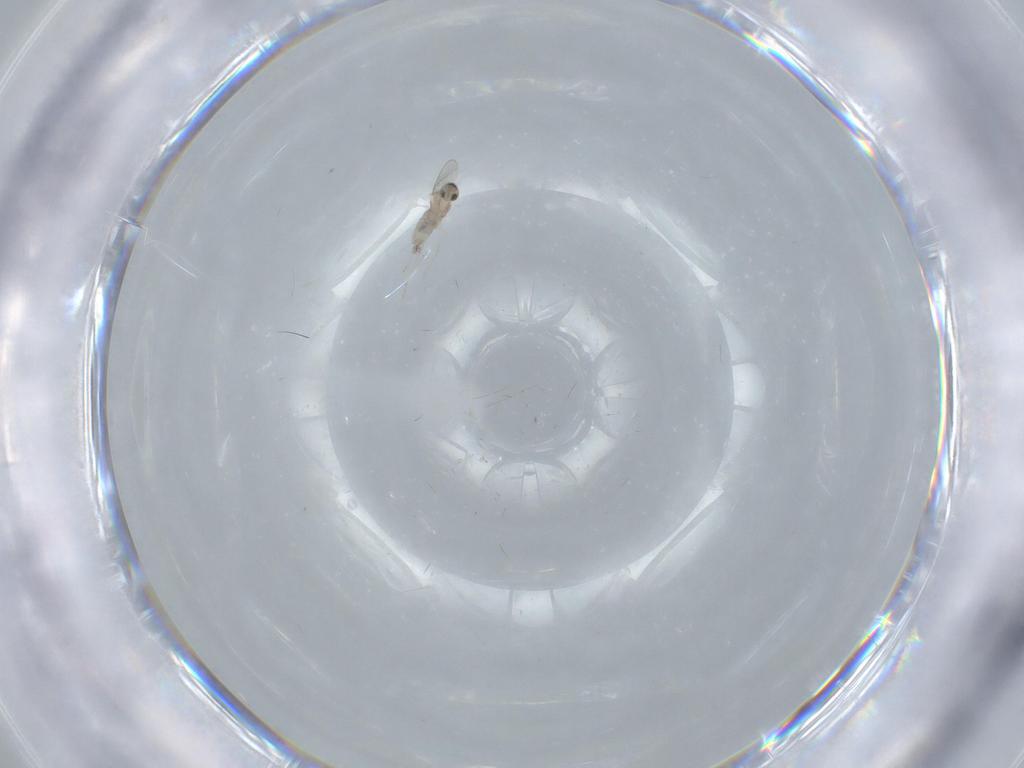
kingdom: Animalia
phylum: Arthropoda
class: Insecta
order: Diptera
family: Cecidomyiidae
